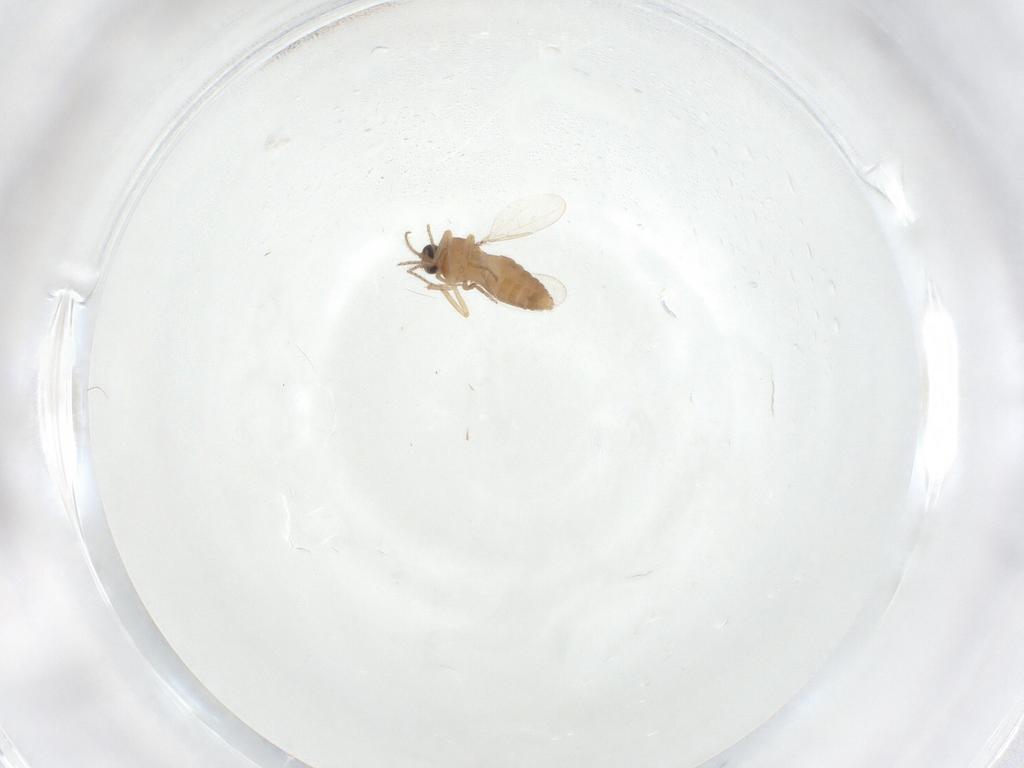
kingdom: Animalia
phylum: Arthropoda
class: Insecta
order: Diptera
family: Ceratopogonidae
